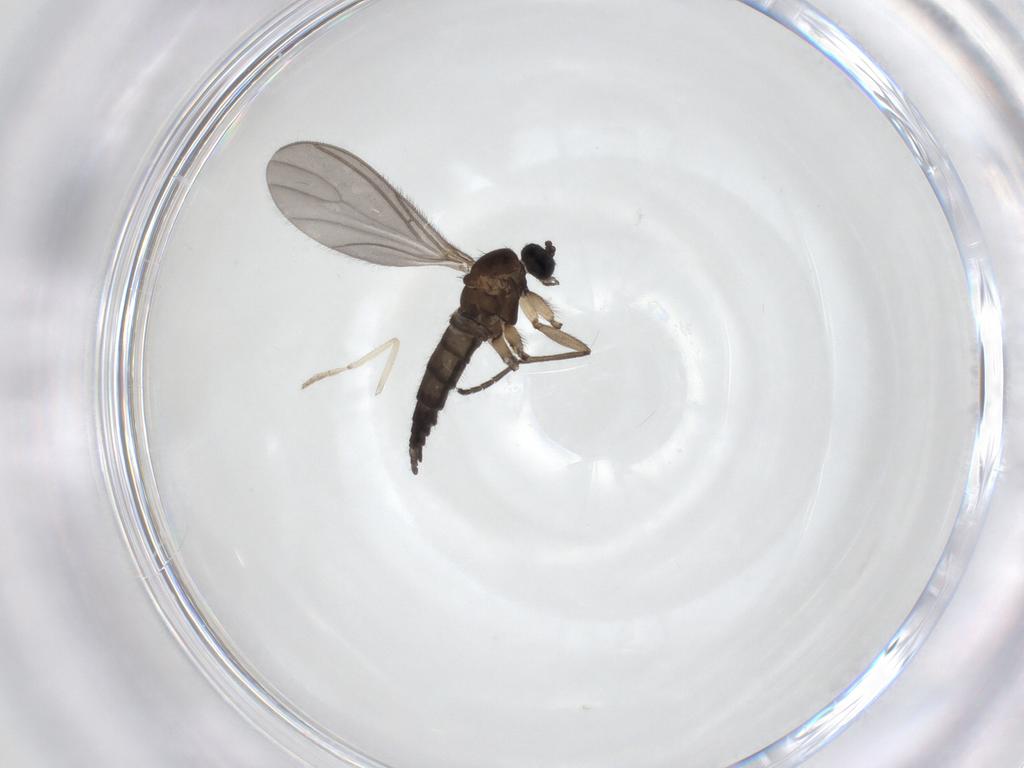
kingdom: Animalia
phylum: Arthropoda
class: Insecta
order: Diptera
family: Sciaridae
